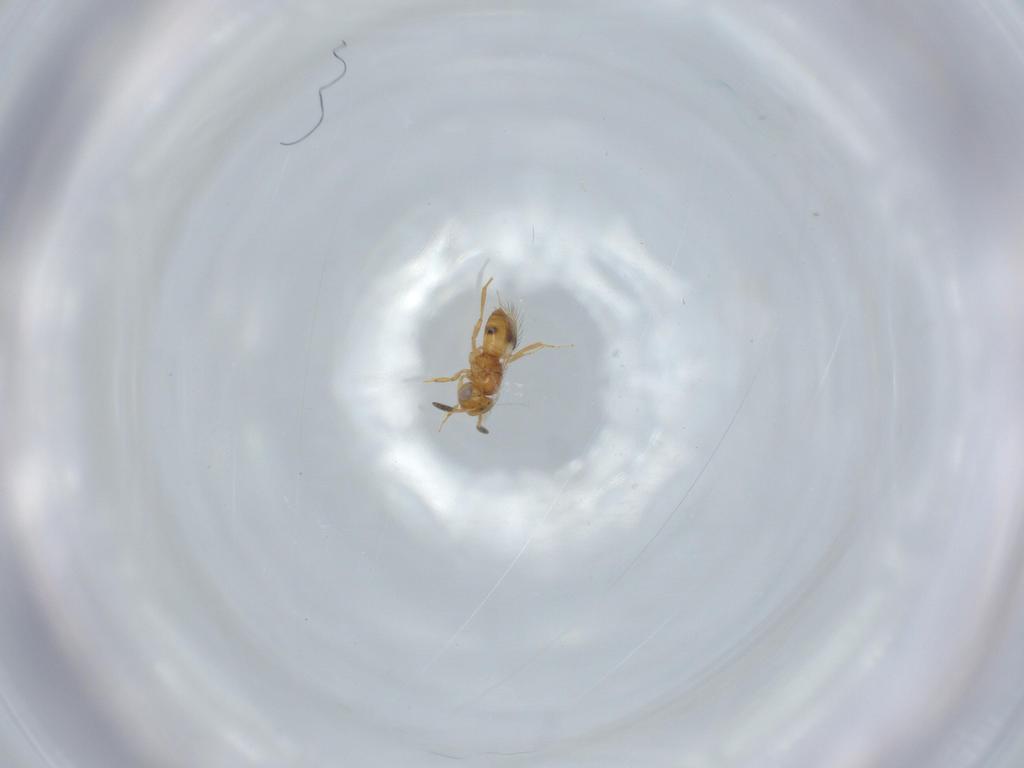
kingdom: Animalia
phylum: Arthropoda
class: Insecta
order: Hymenoptera
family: Scelionidae
